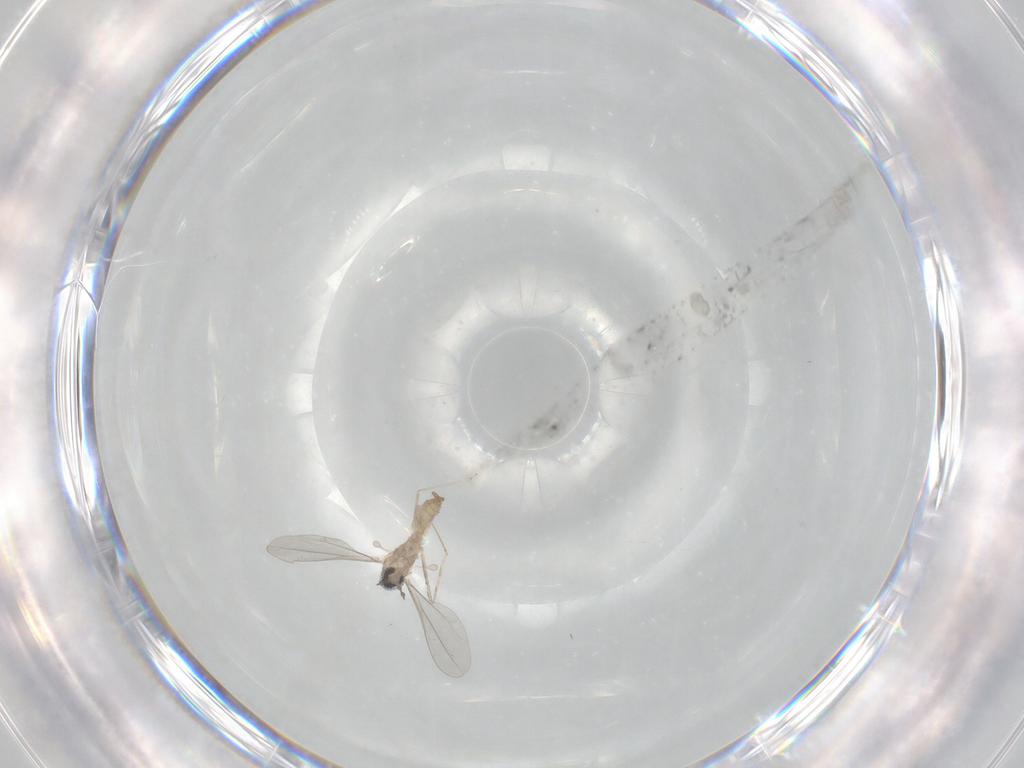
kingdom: Animalia
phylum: Arthropoda
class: Insecta
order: Diptera
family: Cecidomyiidae
